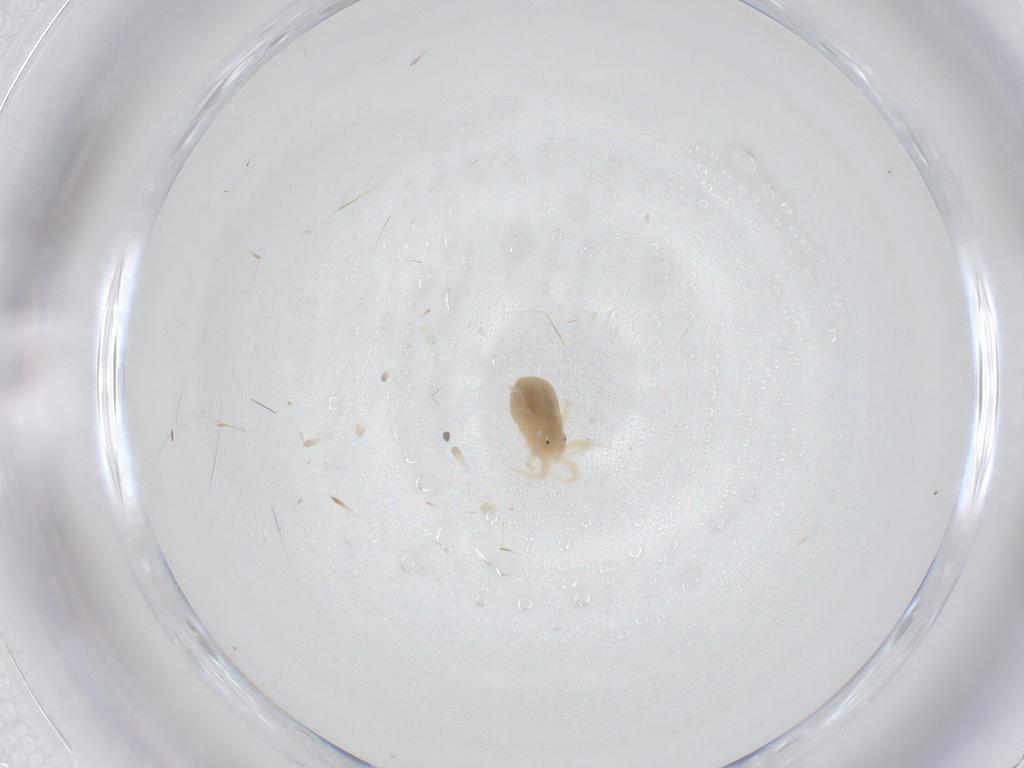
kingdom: Animalia
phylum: Arthropoda
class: Arachnida
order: Trombidiformes
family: Anystidae
